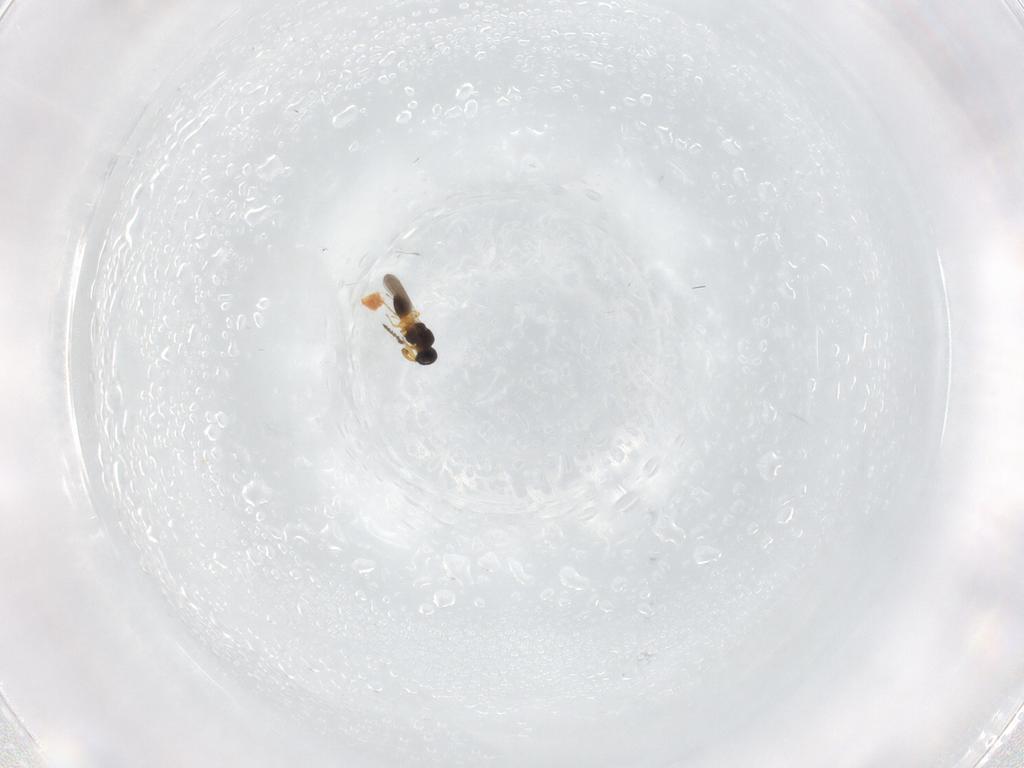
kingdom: Animalia
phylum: Arthropoda
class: Insecta
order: Hymenoptera
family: Platygastridae
